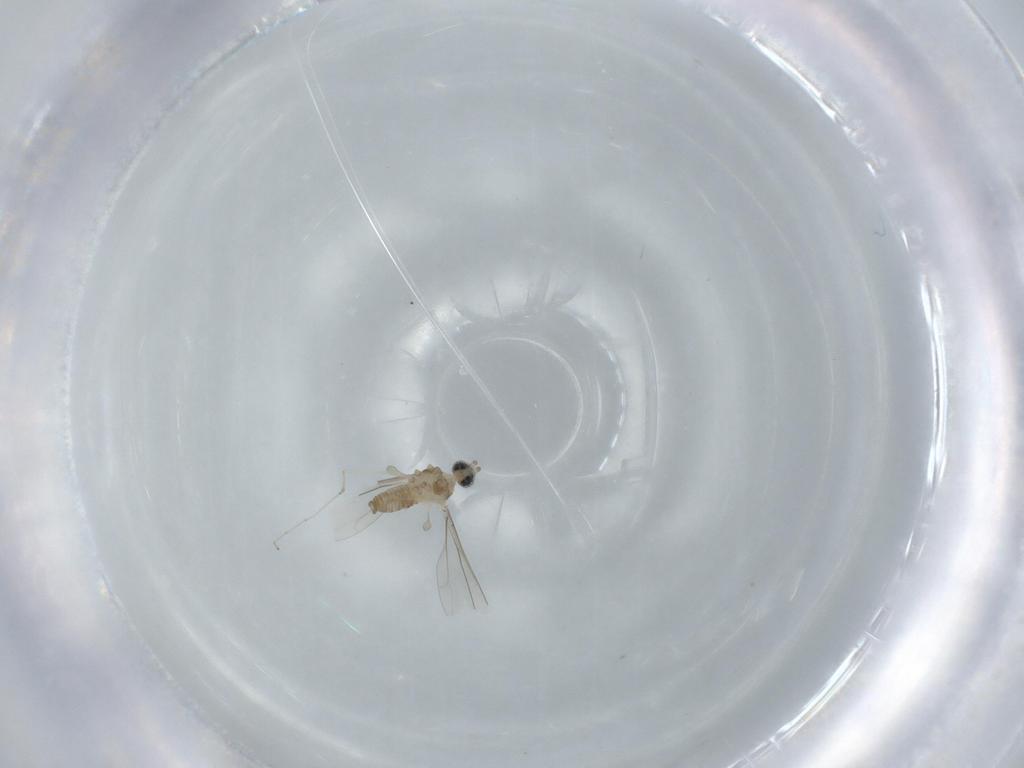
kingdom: Animalia
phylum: Arthropoda
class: Insecta
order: Diptera
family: Cecidomyiidae
